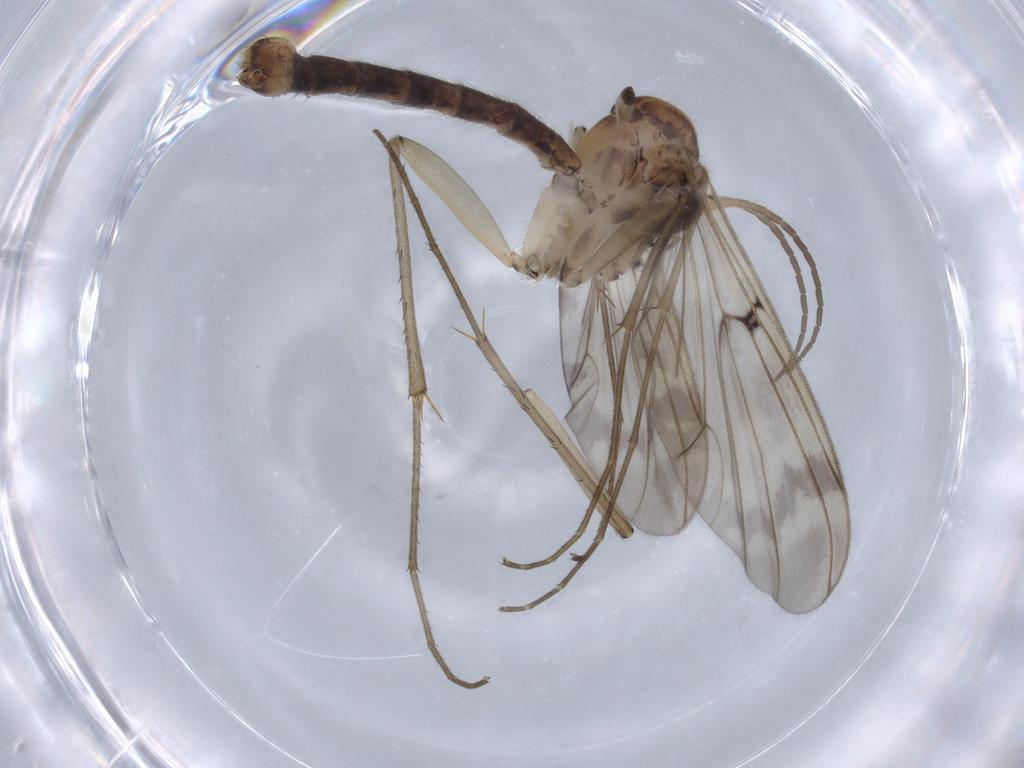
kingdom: Animalia
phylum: Arthropoda
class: Insecta
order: Diptera
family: Mycetophilidae
